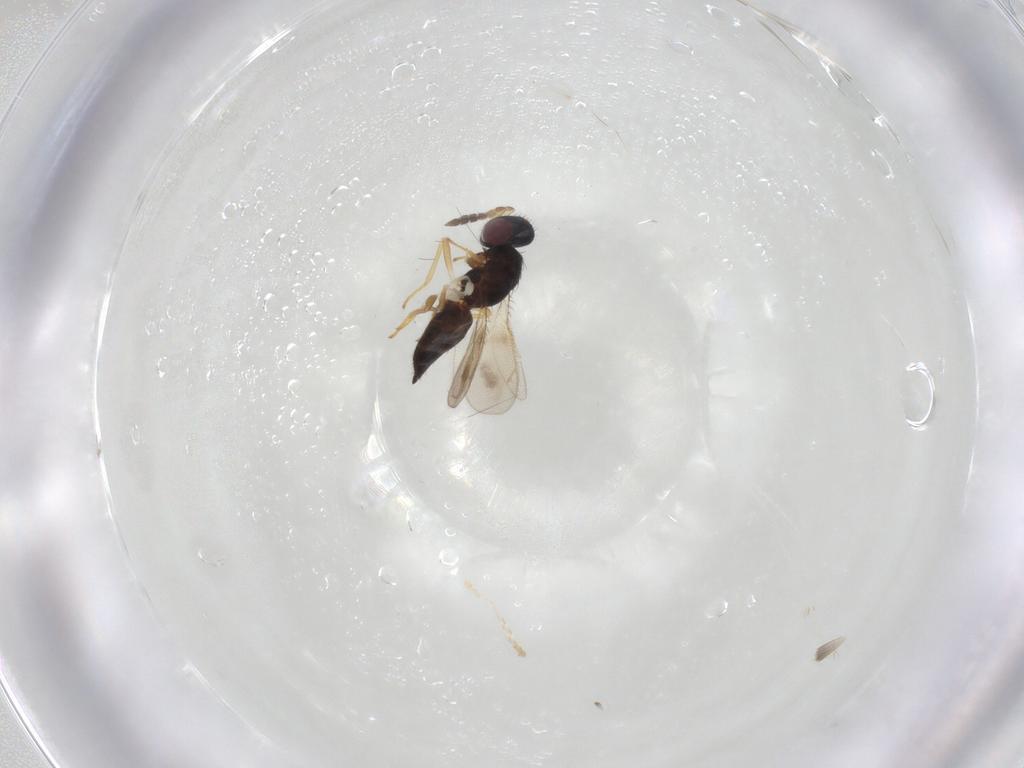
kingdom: Animalia
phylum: Arthropoda
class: Insecta
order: Hymenoptera
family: Eulophidae
